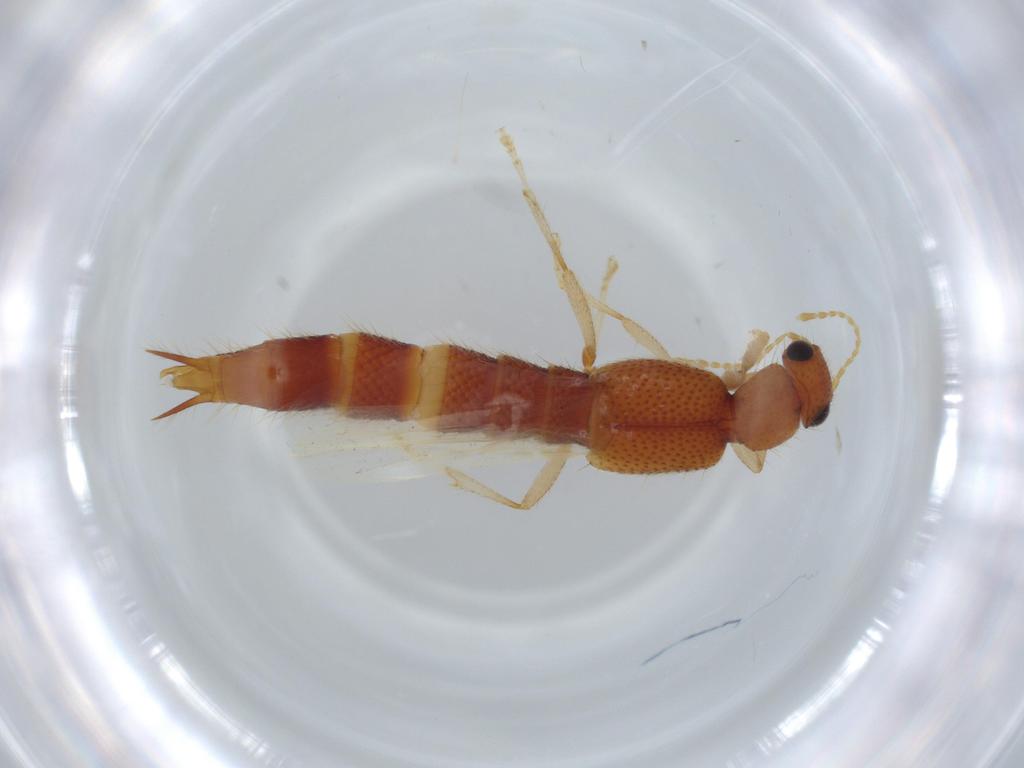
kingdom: Animalia
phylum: Arthropoda
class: Insecta
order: Coleoptera
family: Staphylinidae
